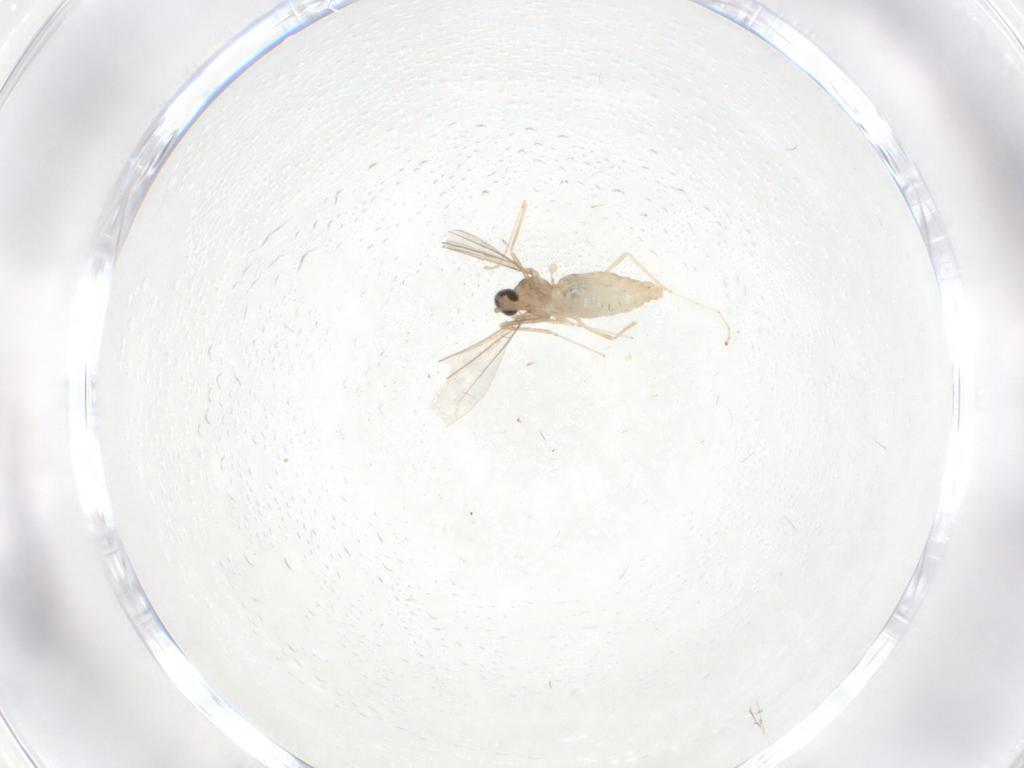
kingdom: Animalia
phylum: Arthropoda
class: Insecta
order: Diptera
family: Cecidomyiidae
